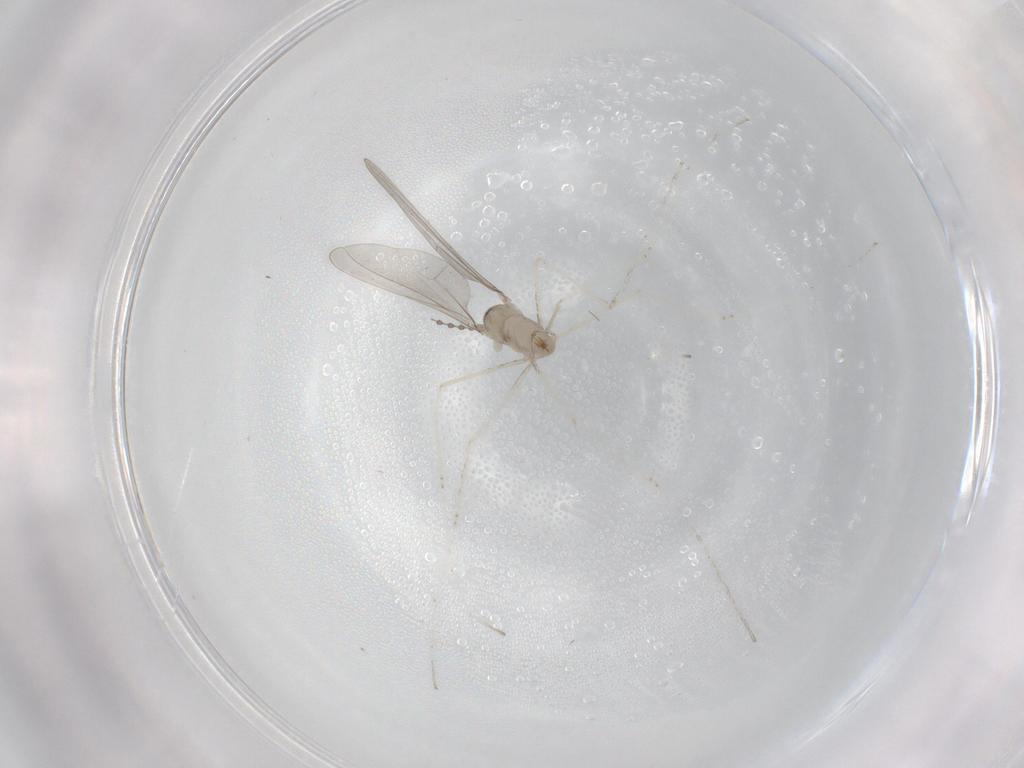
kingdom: Animalia
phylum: Arthropoda
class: Insecta
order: Diptera
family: Cecidomyiidae
